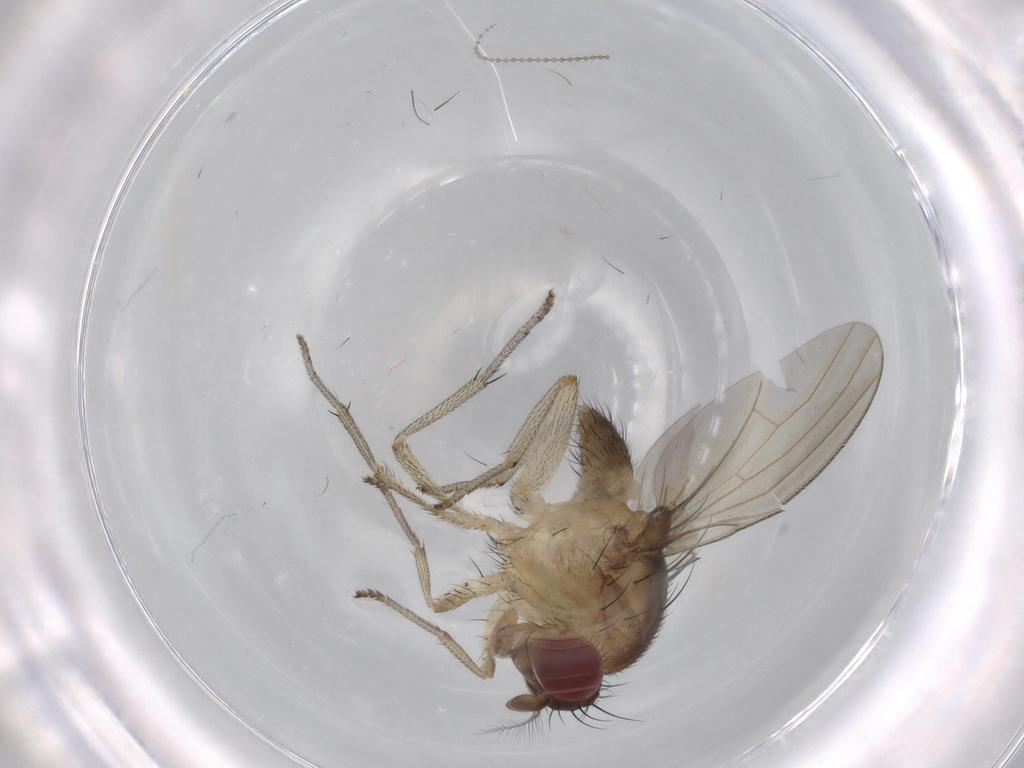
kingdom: Animalia
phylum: Arthropoda
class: Insecta
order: Diptera
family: Cecidomyiidae
